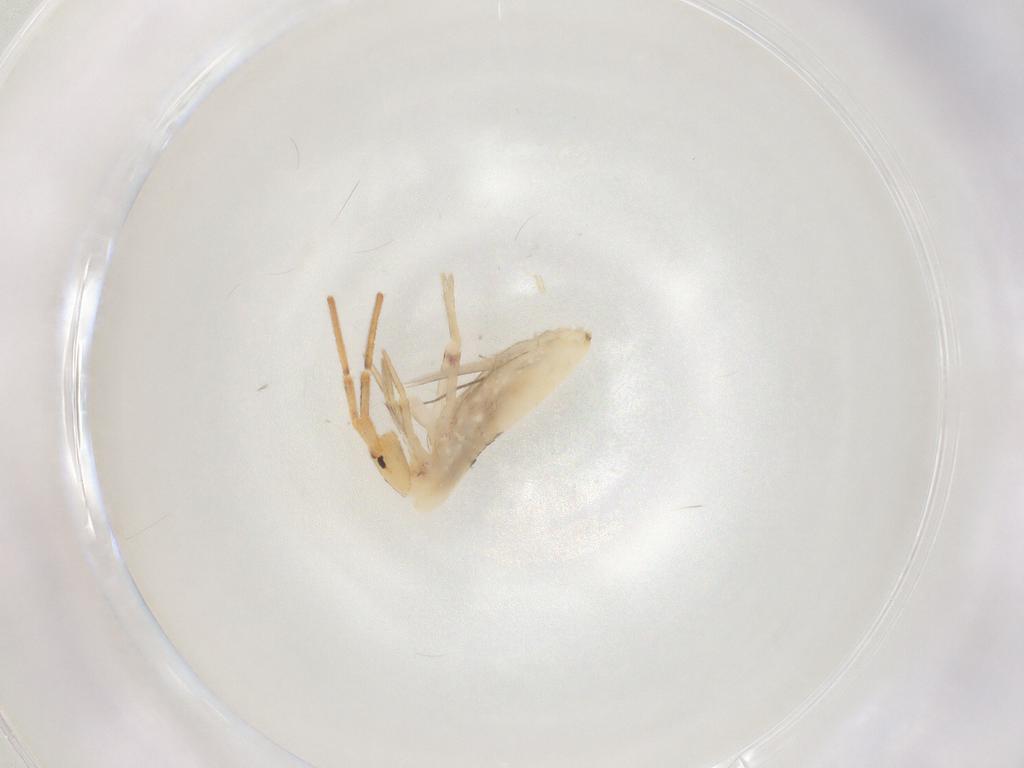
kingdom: Animalia
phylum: Arthropoda
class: Collembola
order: Poduromorpha
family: Hypogastruridae
